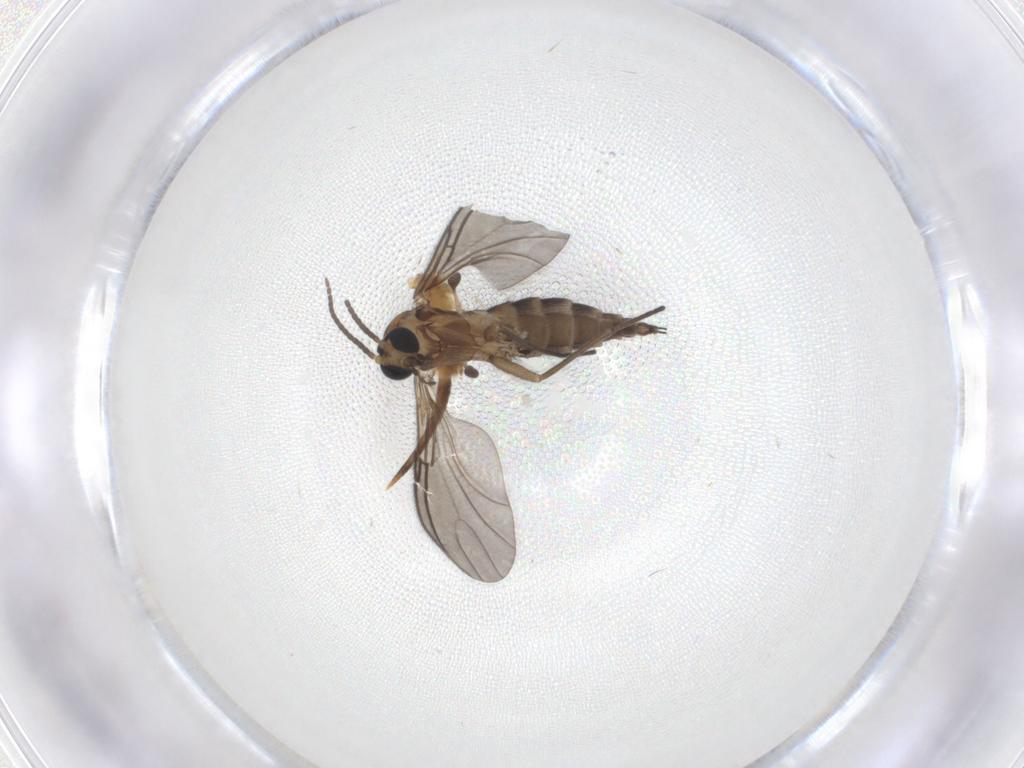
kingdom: Animalia
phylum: Arthropoda
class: Insecta
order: Diptera
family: Sciaridae
